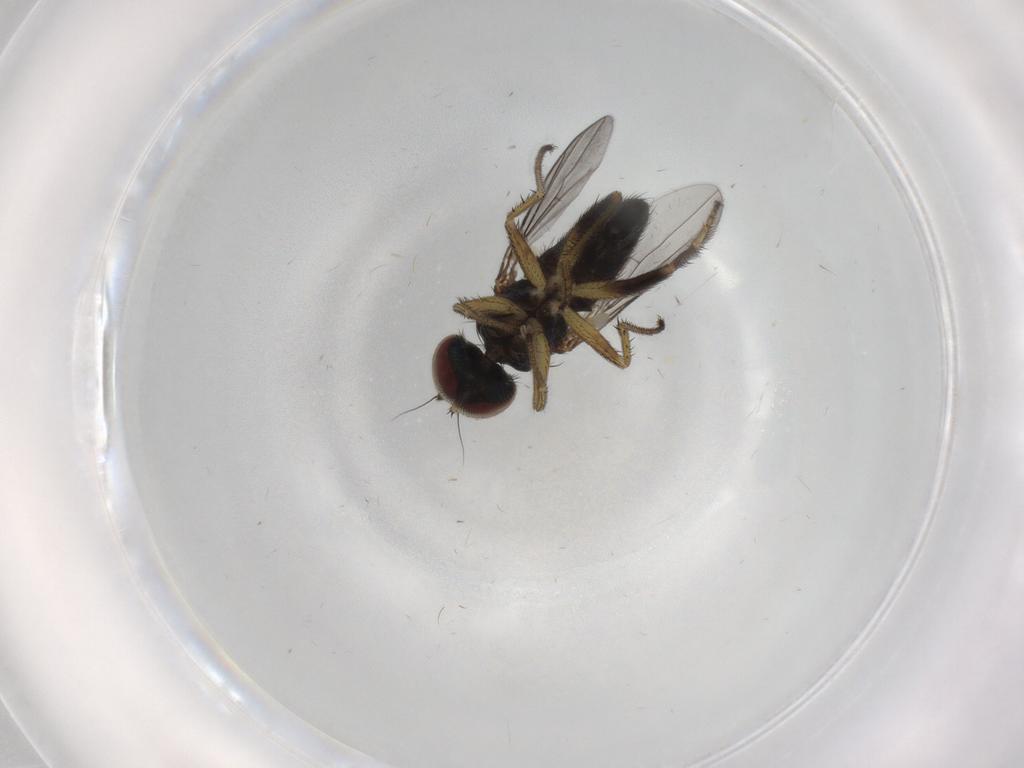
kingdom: Animalia
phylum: Arthropoda
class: Insecta
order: Diptera
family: Dolichopodidae
